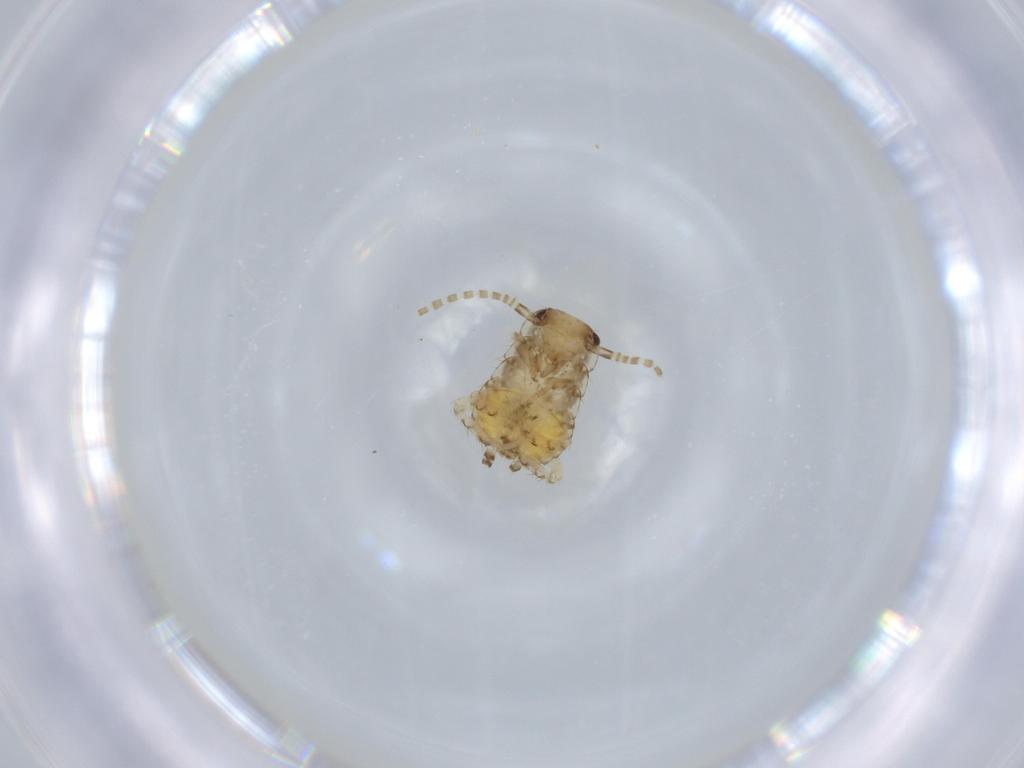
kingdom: Animalia
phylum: Arthropoda
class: Insecta
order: Blattodea
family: Ectobiidae
